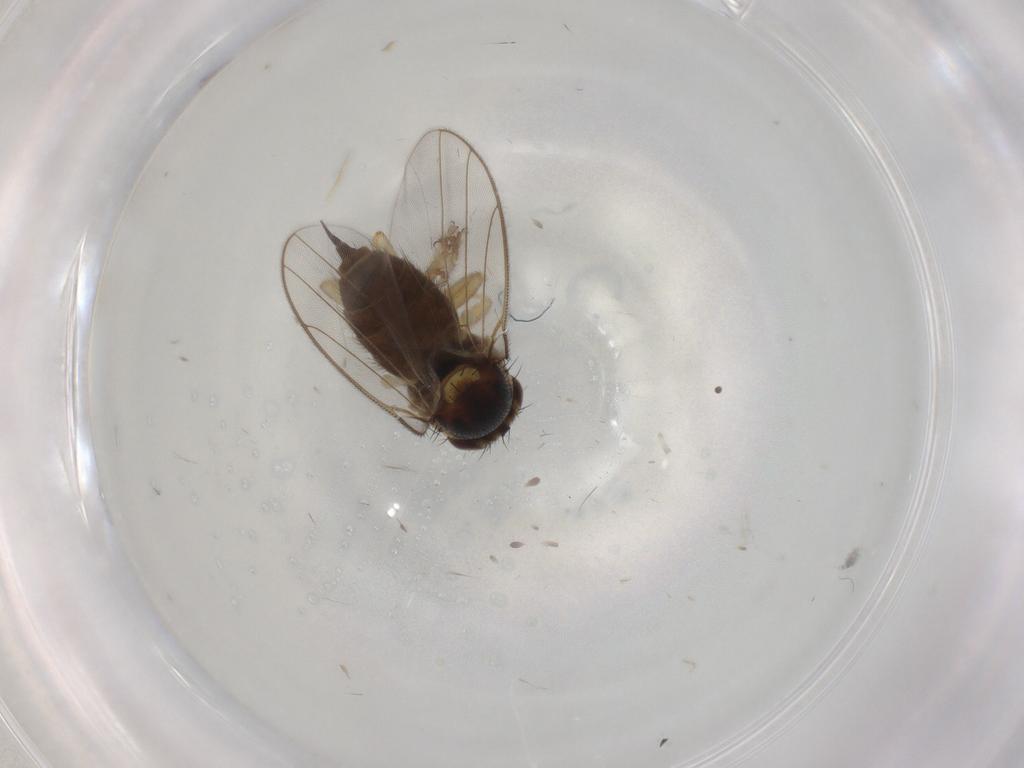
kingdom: Animalia
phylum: Arthropoda
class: Insecta
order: Diptera
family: Chloropidae
